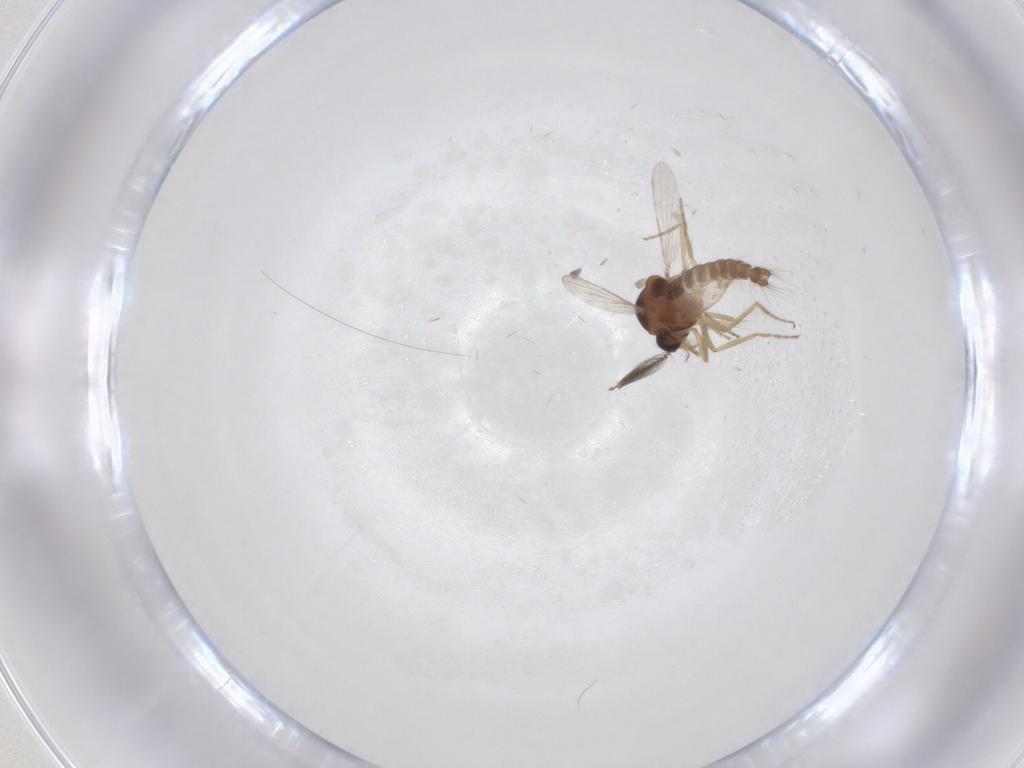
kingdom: Animalia
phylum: Arthropoda
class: Insecta
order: Diptera
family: Ceratopogonidae
